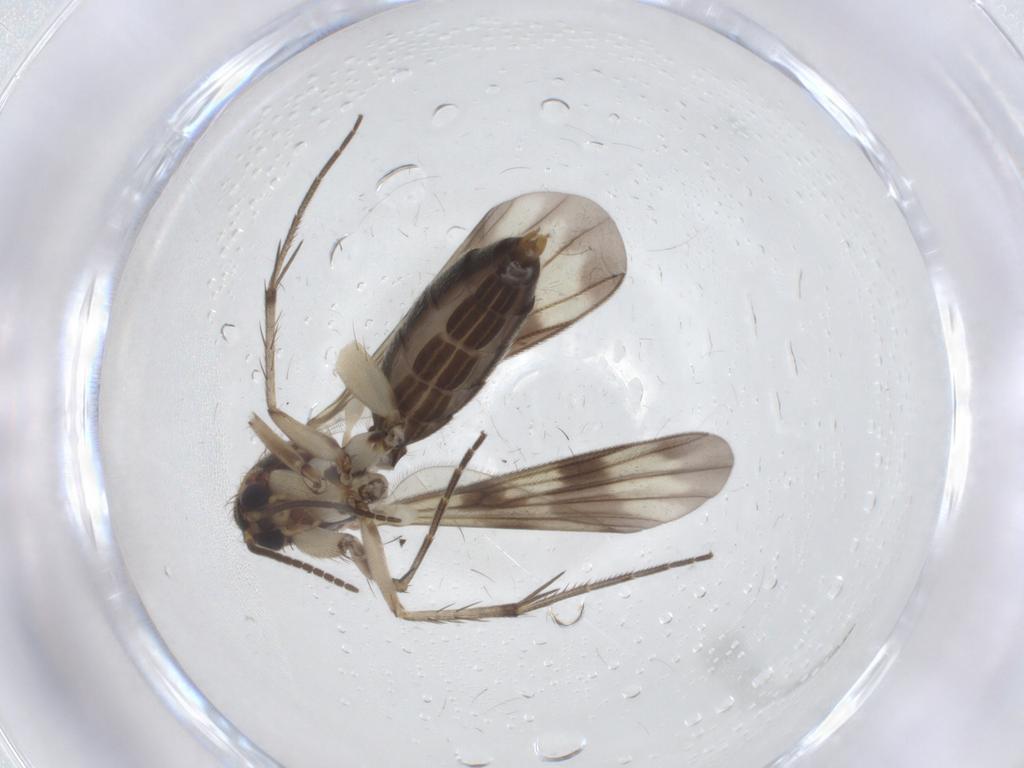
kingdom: Animalia
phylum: Arthropoda
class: Insecta
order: Diptera
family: Mycetophilidae
